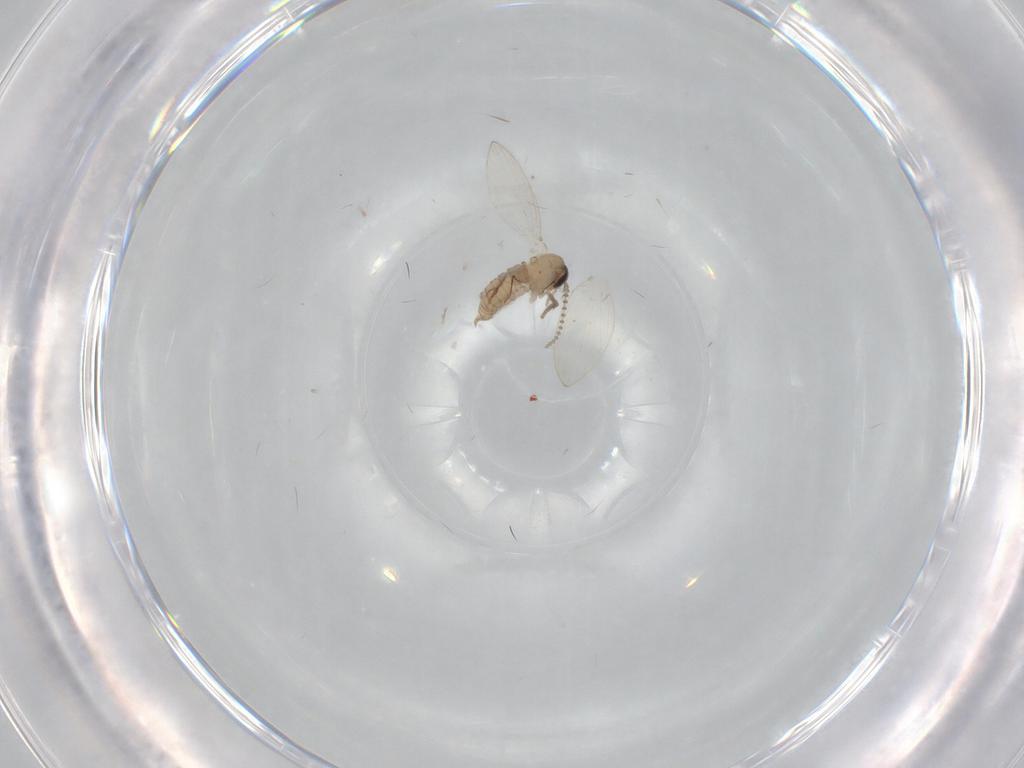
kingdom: Animalia
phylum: Arthropoda
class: Insecta
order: Diptera
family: Psychodidae
